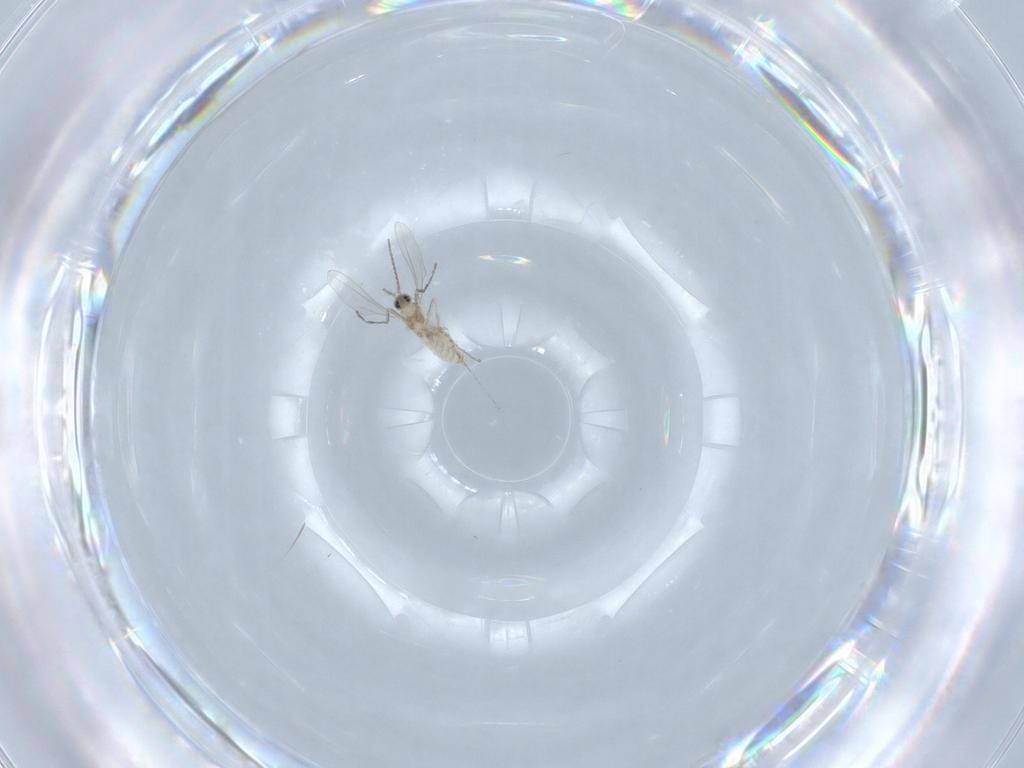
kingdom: Animalia
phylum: Arthropoda
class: Insecta
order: Diptera
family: Cecidomyiidae
